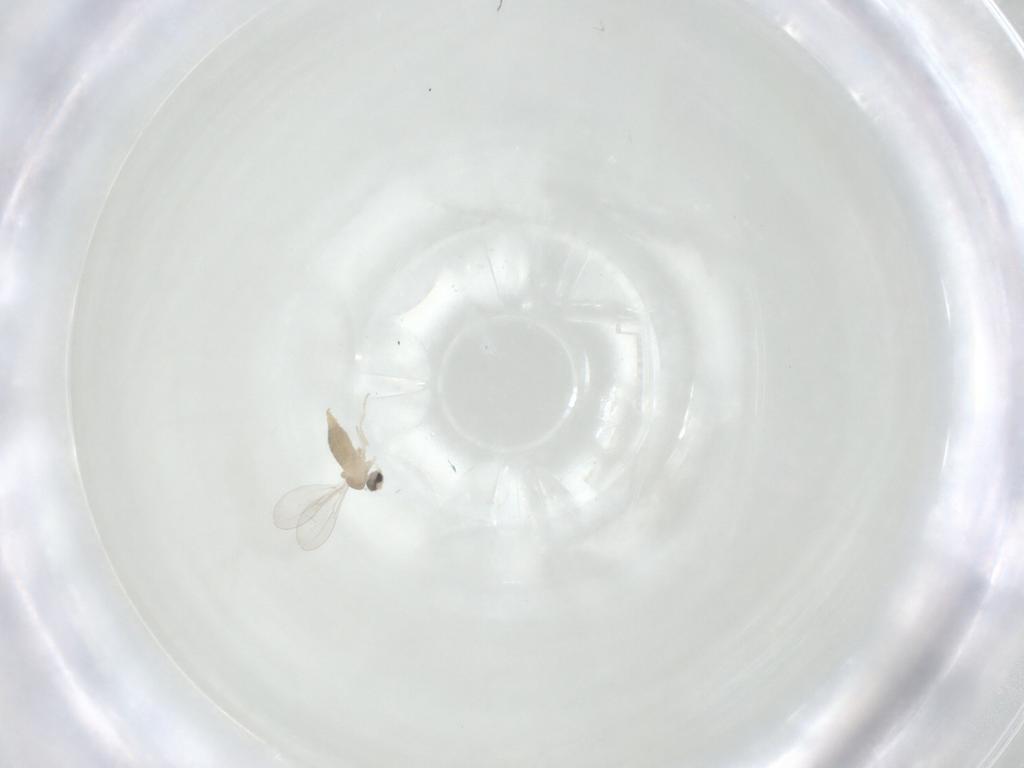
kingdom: Animalia
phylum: Arthropoda
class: Insecta
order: Diptera
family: Cecidomyiidae
